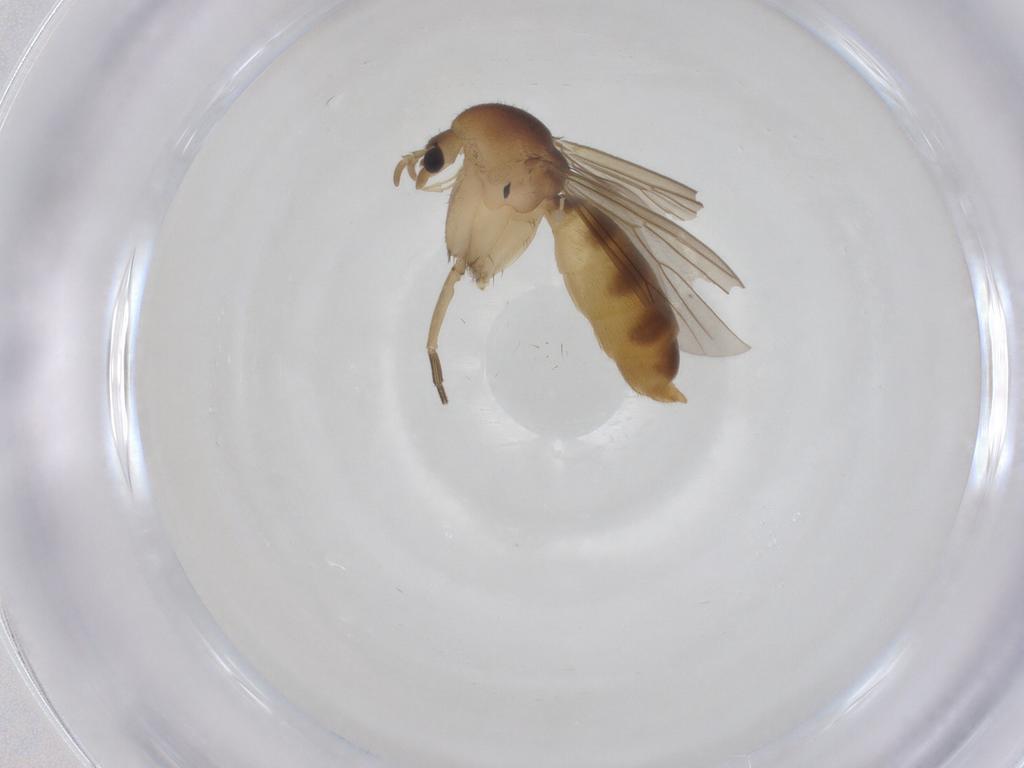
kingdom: Animalia
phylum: Arthropoda
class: Insecta
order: Diptera
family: Mycetophilidae
